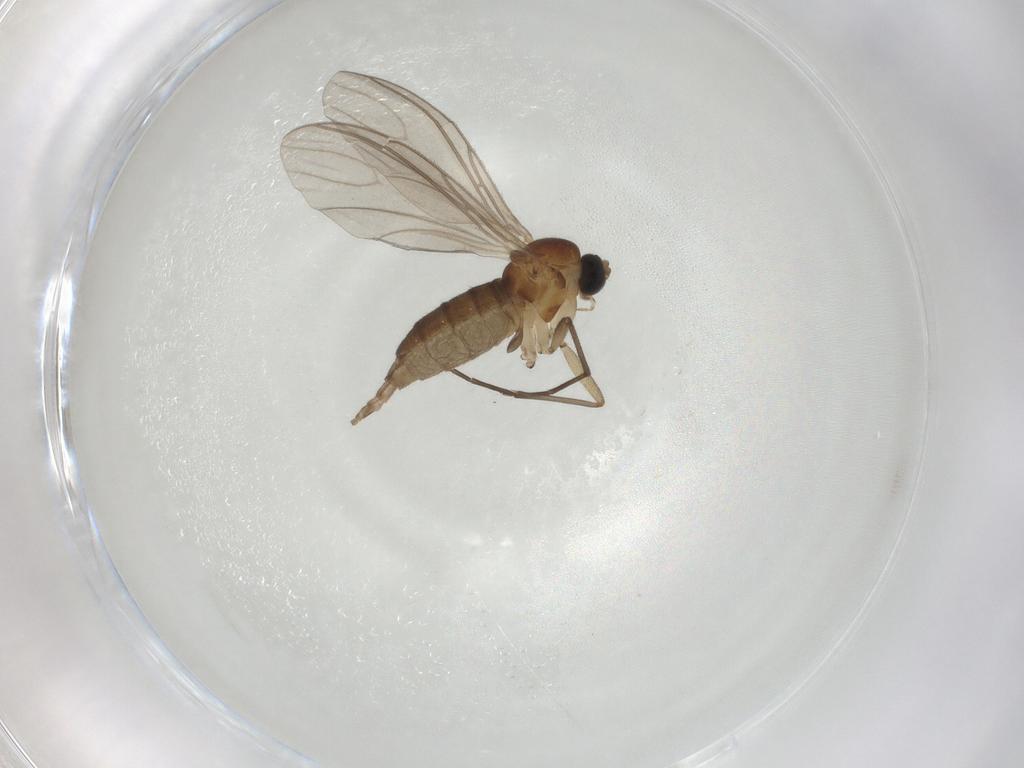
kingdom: Animalia
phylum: Arthropoda
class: Insecta
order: Diptera
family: Sciaridae
